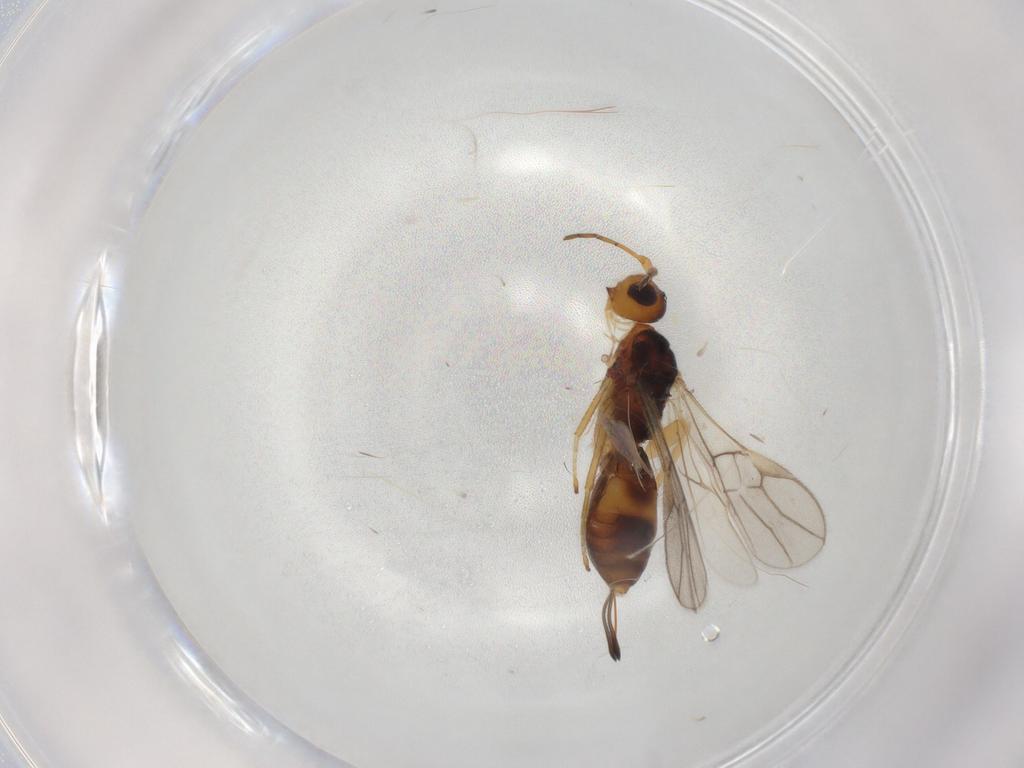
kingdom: Animalia
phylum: Arthropoda
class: Insecta
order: Hymenoptera
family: Braconidae
